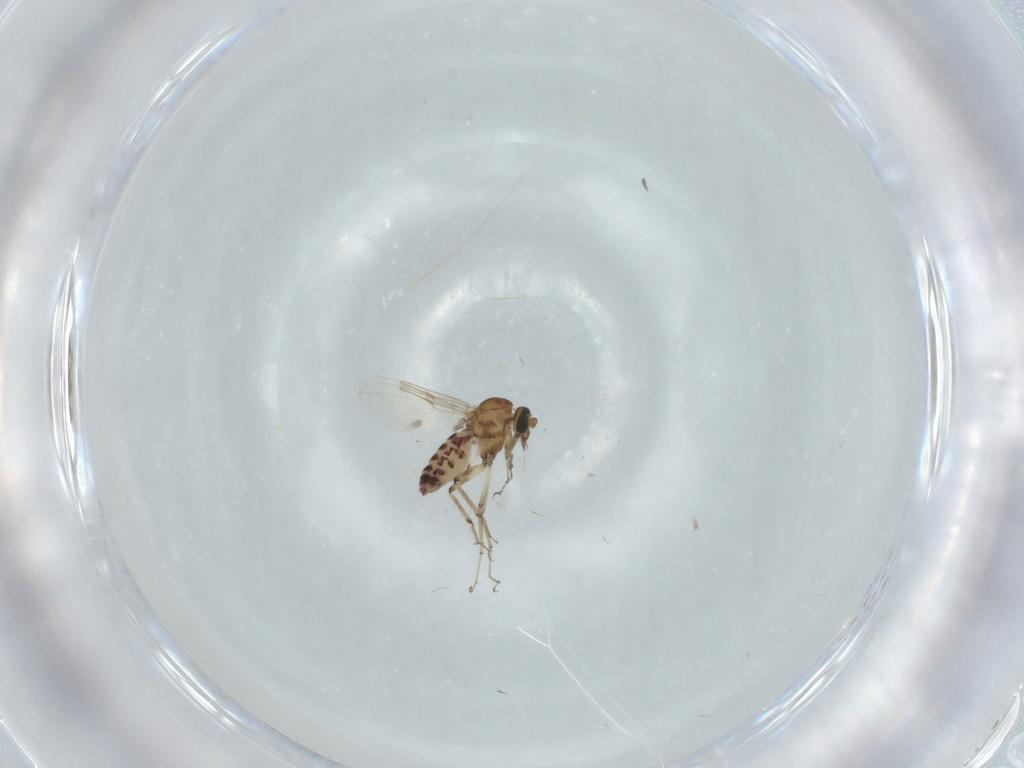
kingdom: Animalia
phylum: Arthropoda
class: Insecta
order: Diptera
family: Ceratopogonidae
